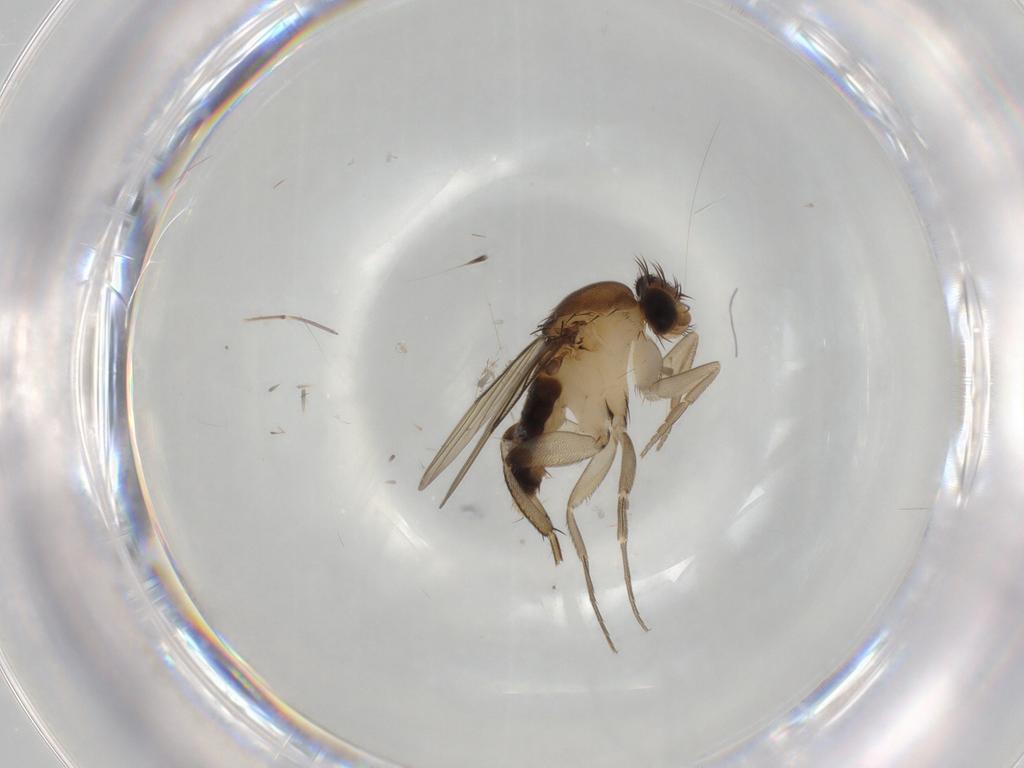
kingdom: Animalia
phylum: Arthropoda
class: Insecta
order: Diptera
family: Phoridae
